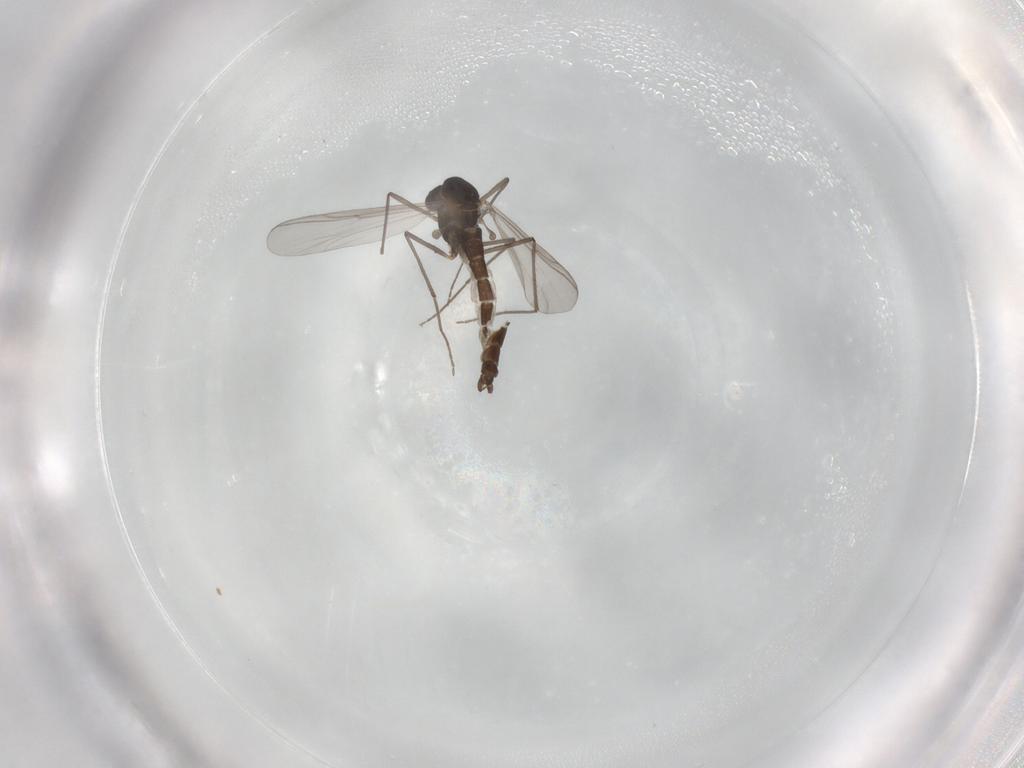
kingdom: Animalia
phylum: Arthropoda
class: Insecta
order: Diptera
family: Chironomidae
